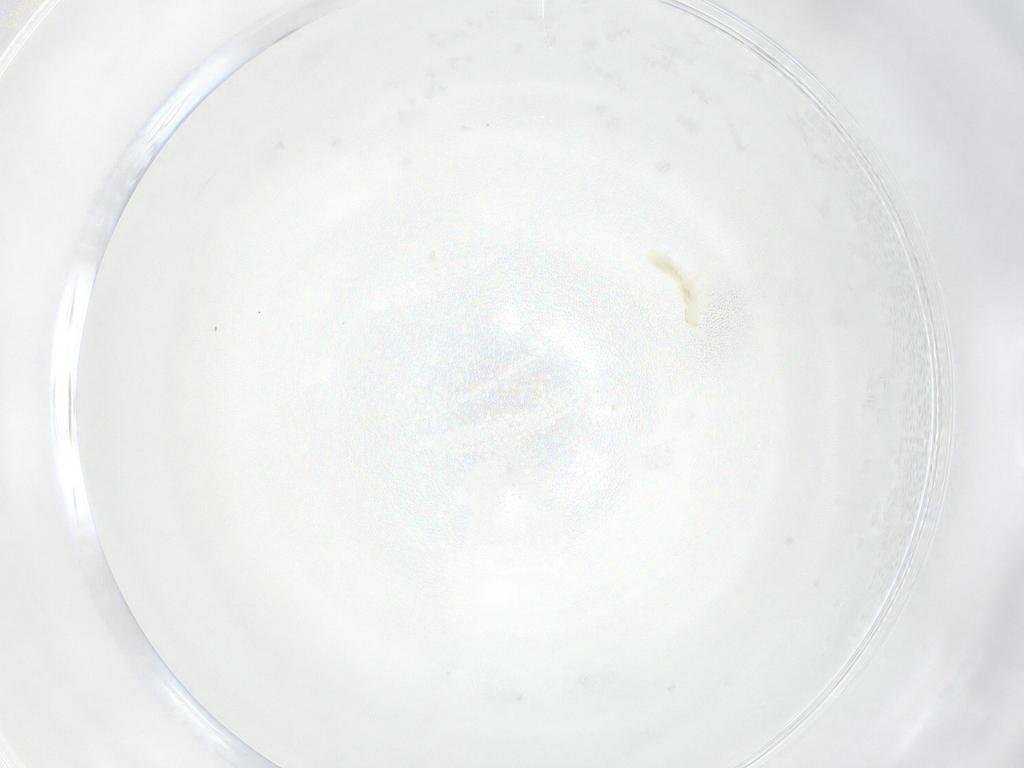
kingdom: Animalia
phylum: Arthropoda
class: Collembola
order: Entomobryomorpha
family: Isotomidae
